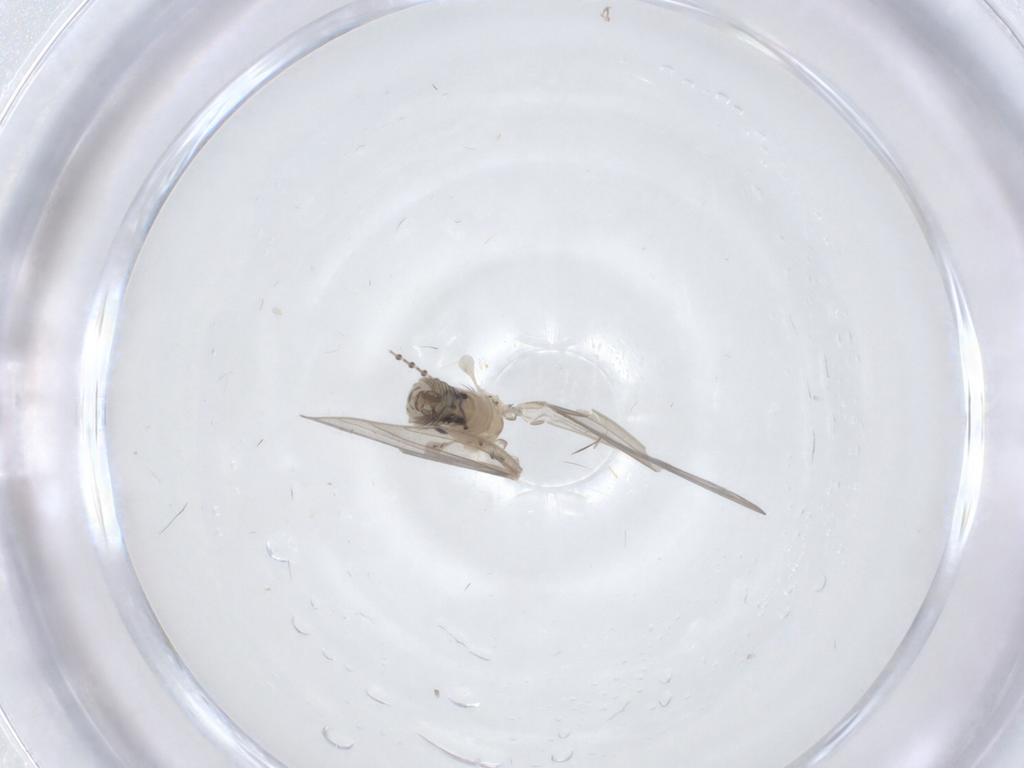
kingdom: Animalia
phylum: Arthropoda
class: Insecta
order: Diptera
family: Psychodidae
